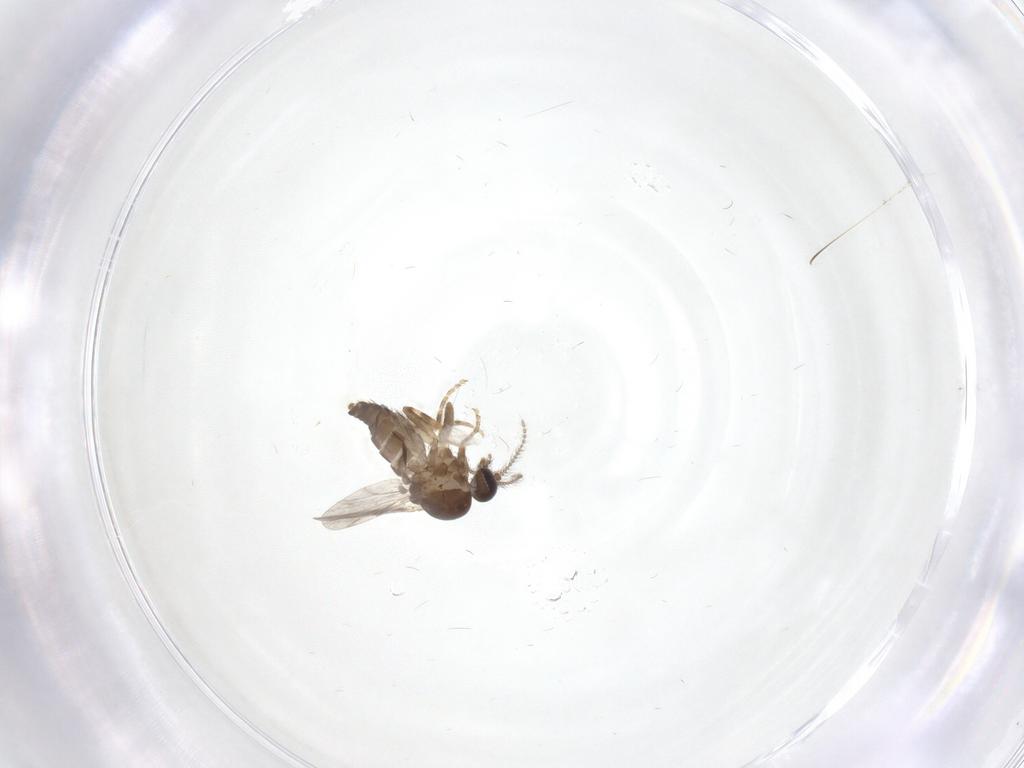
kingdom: Animalia
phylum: Arthropoda
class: Insecta
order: Diptera
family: Ceratopogonidae
